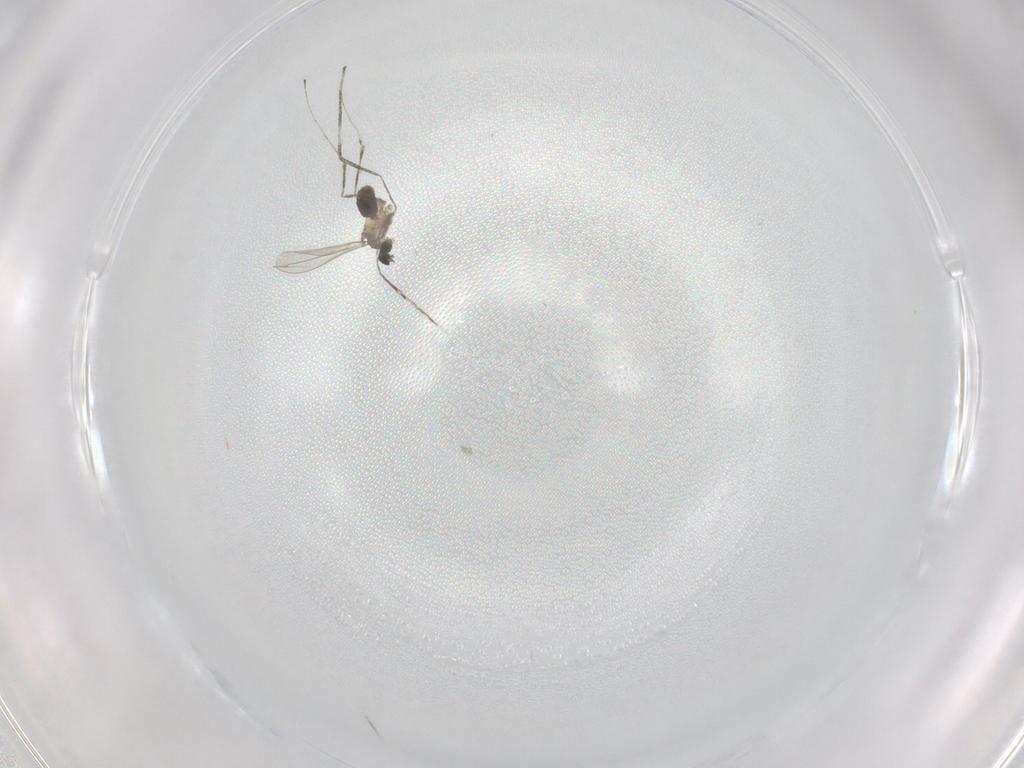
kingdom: Animalia
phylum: Arthropoda
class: Insecta
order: Diptera
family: Cecidomyiidae
